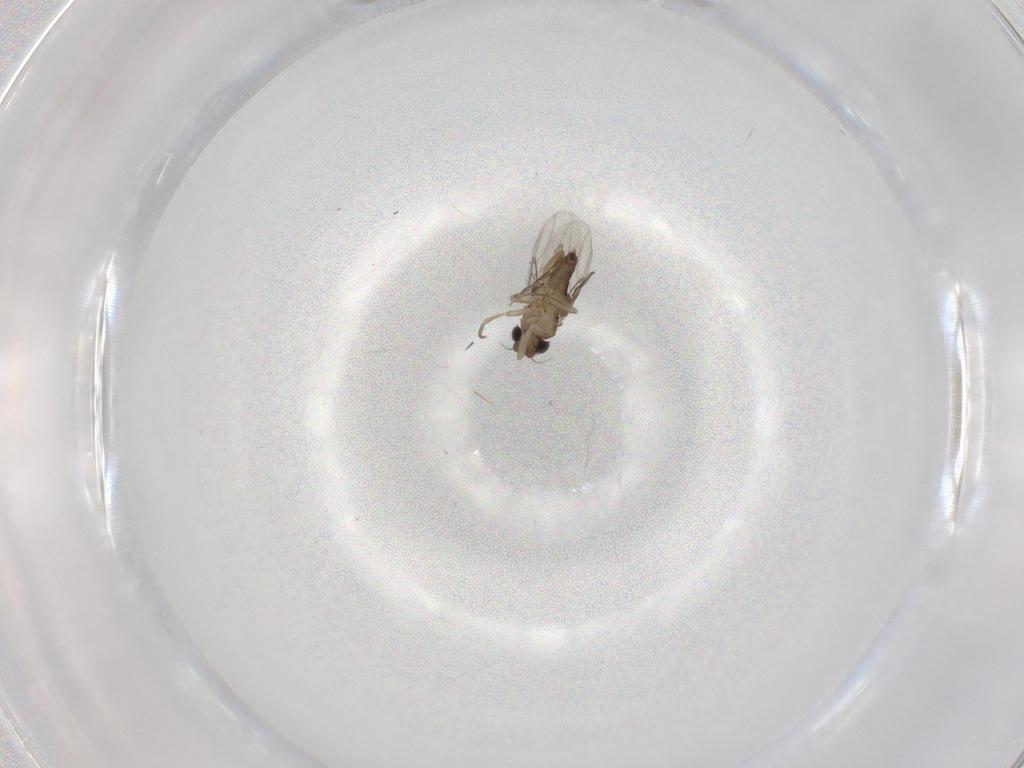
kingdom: Animalia
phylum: Arthropoda
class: Insecta
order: Diptera
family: Phoridae
